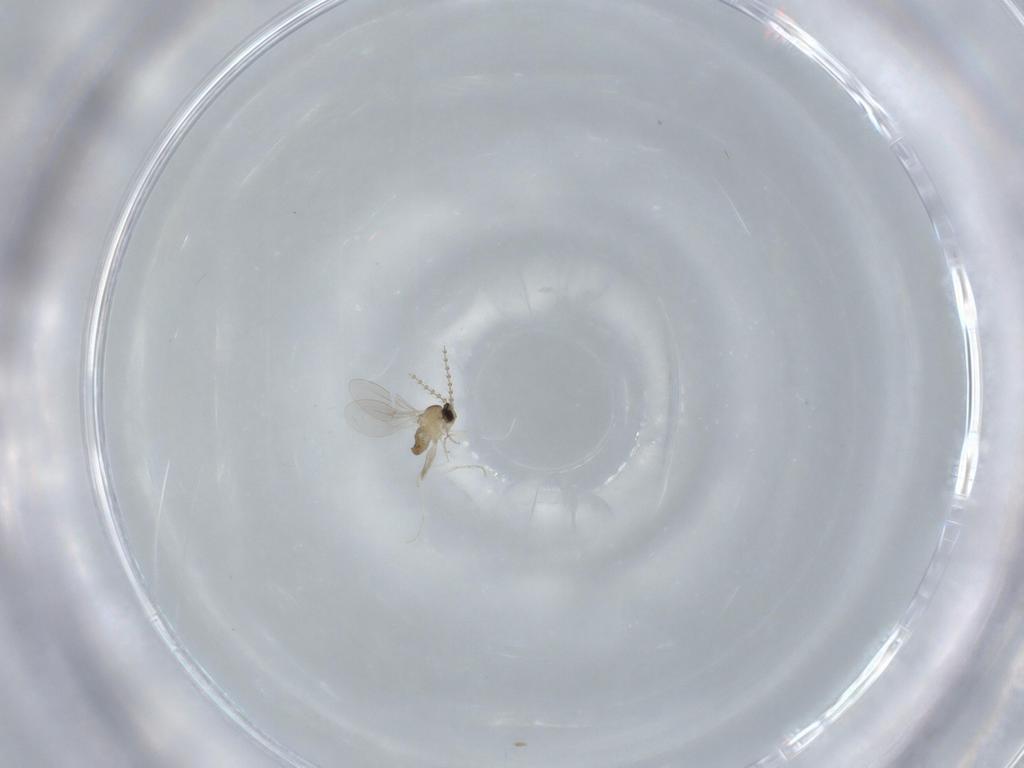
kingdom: Animalia
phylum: Arthropoda
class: Insecta
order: Diptera
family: Cecidomyiidae
